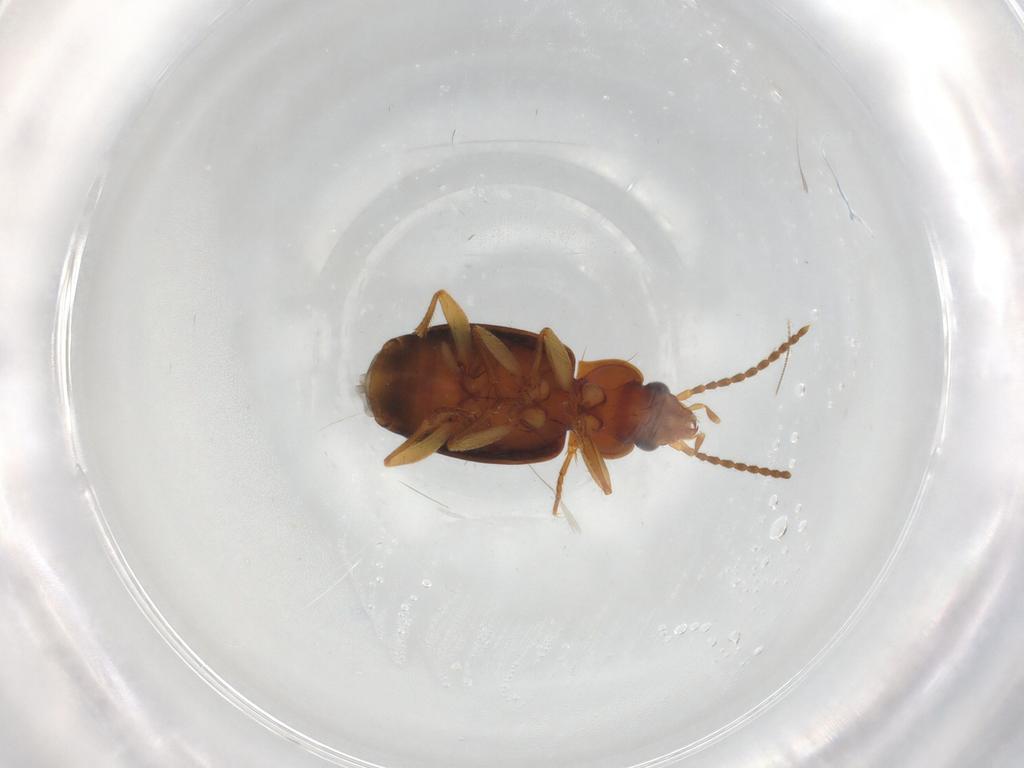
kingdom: Animalia
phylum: Arthropoda
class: Insecta
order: Coleoptera
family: Carabidae
